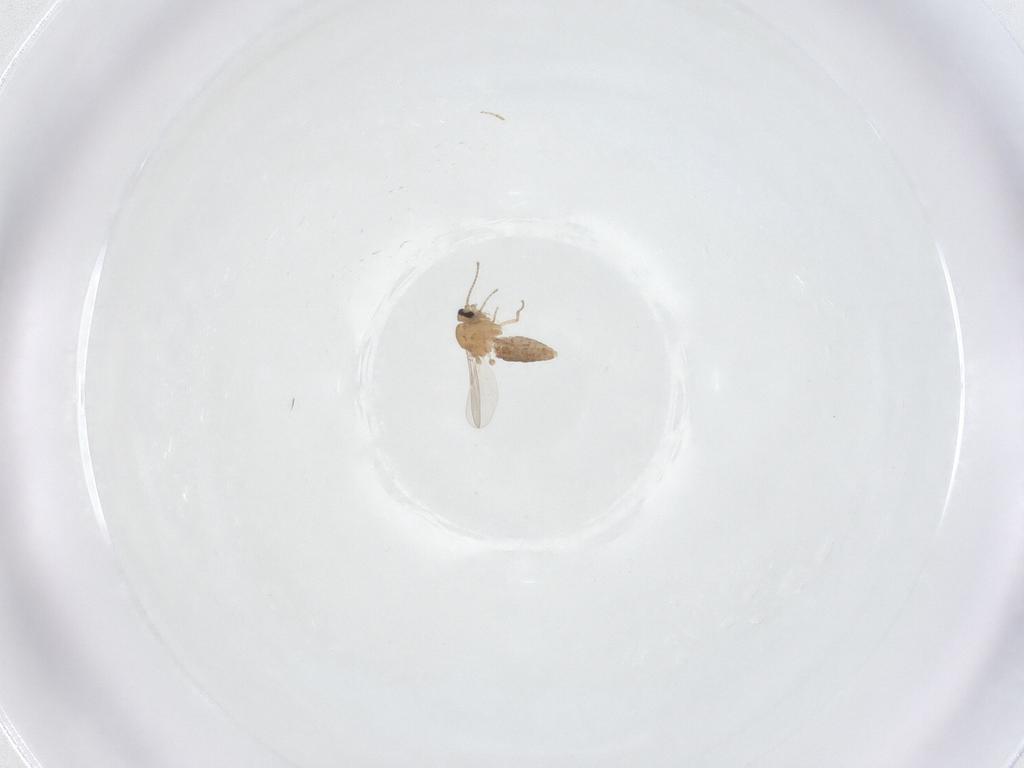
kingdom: Animalia
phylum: Arthropoda
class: Insecta
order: Diptera
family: Ceratopogonidae
